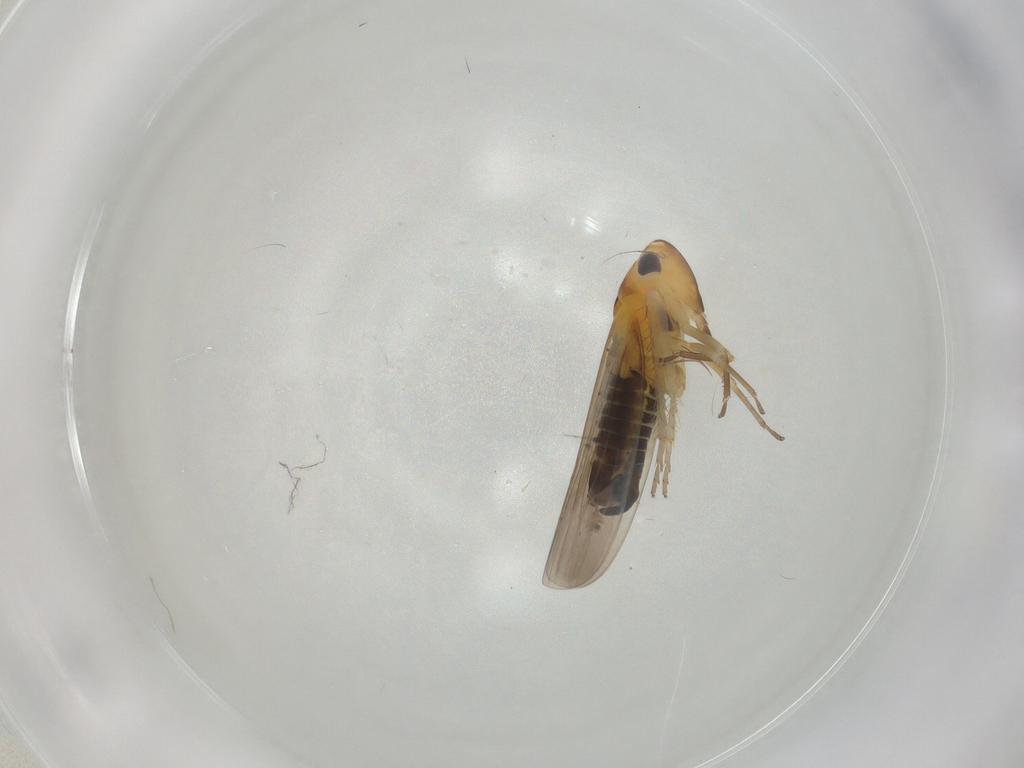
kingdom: Animalia
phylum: Arthropoda
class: Insecta
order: Hemiptera
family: Cicadellidae
